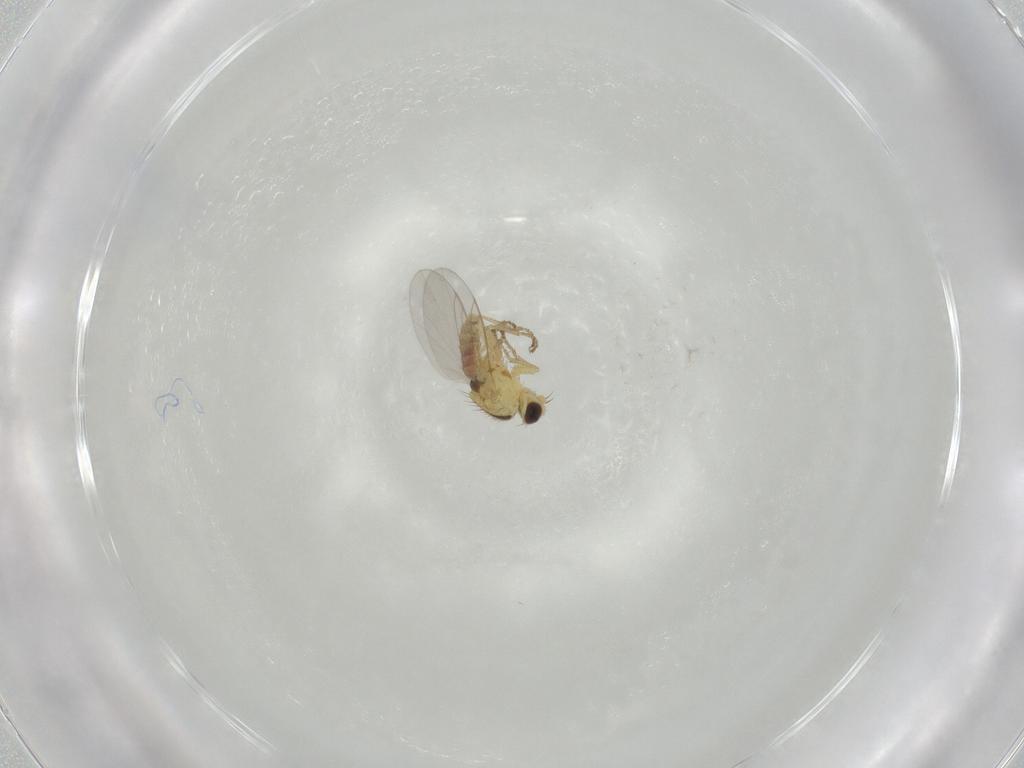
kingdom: Animalia
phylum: Arthropoda
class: Insecta
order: Diptera
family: Agromyzidae
